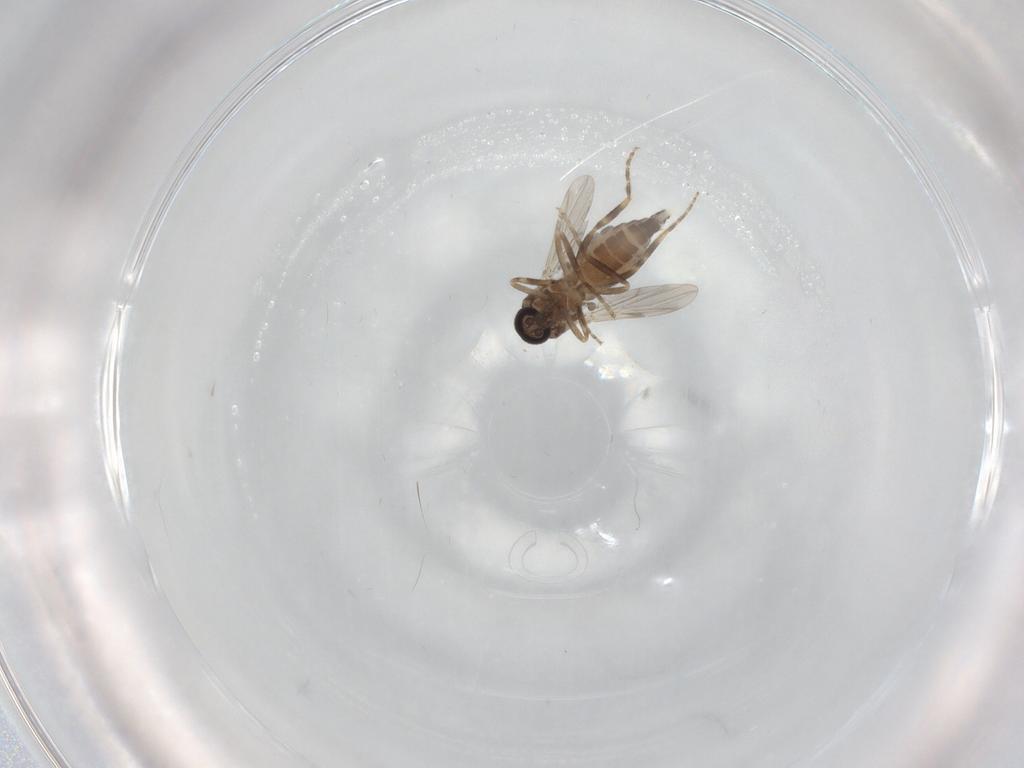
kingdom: Animalia
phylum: Arthropoda
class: Insecta
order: Diptera
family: Ceratopogonidae
